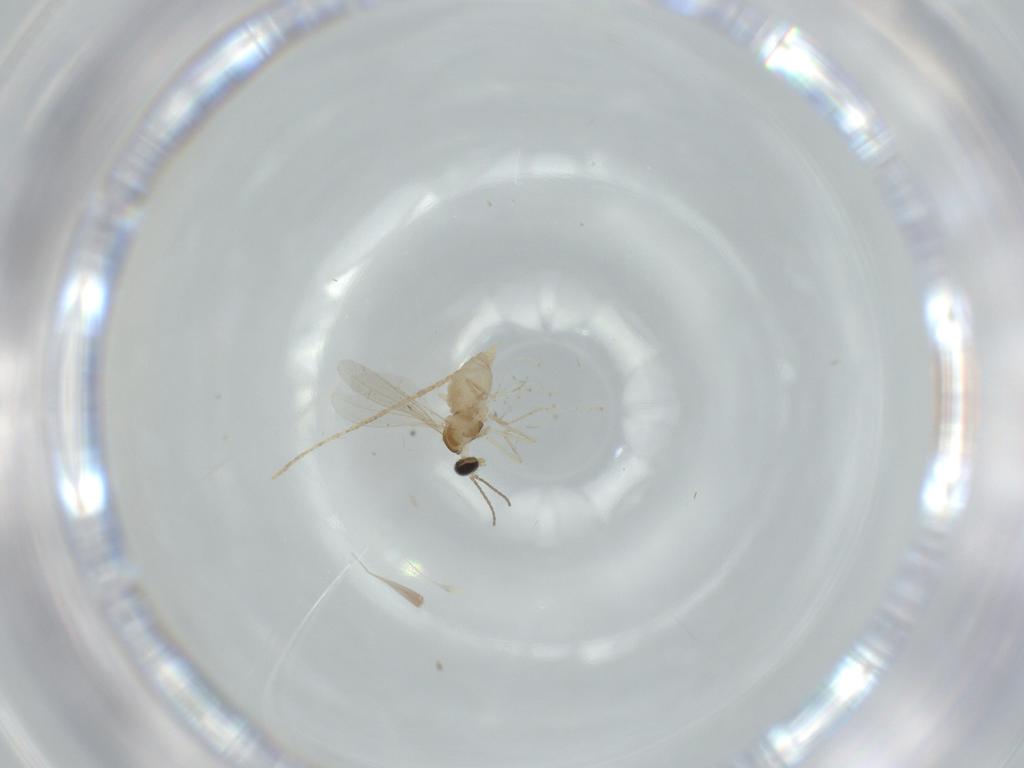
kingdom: Animalia
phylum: Arthropoda
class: Insecta
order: Diptera
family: Cecidomyiidae
